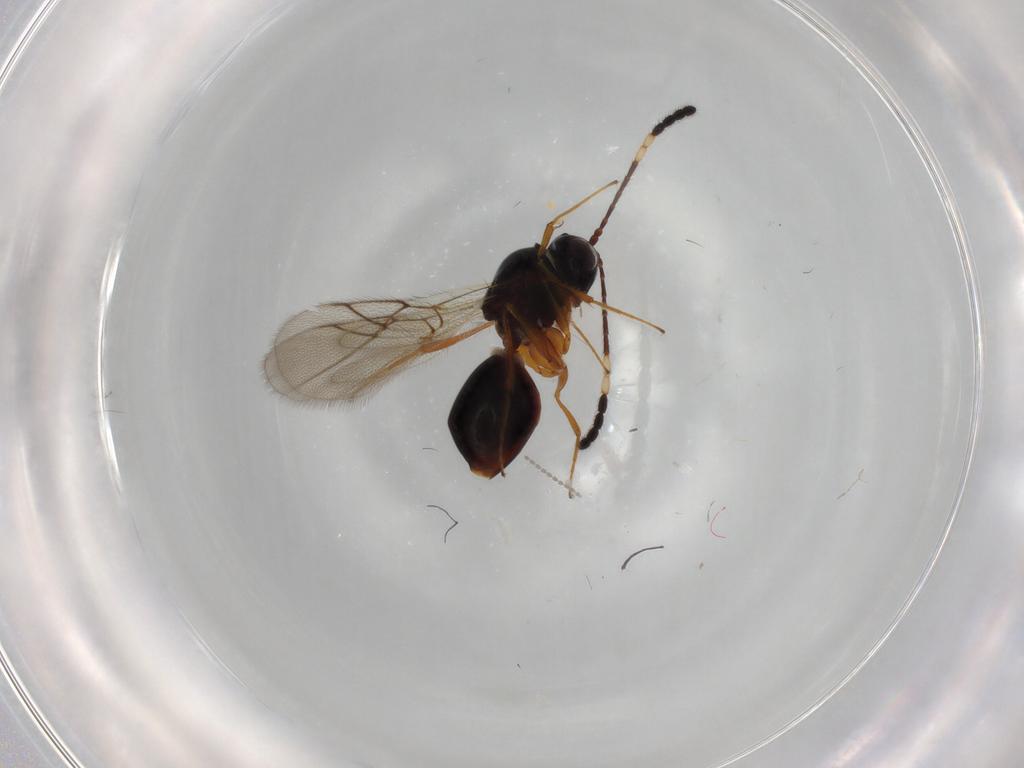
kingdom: Animalia
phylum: Arthropoda
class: Insecta
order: Hymenoptera
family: Figitidae
